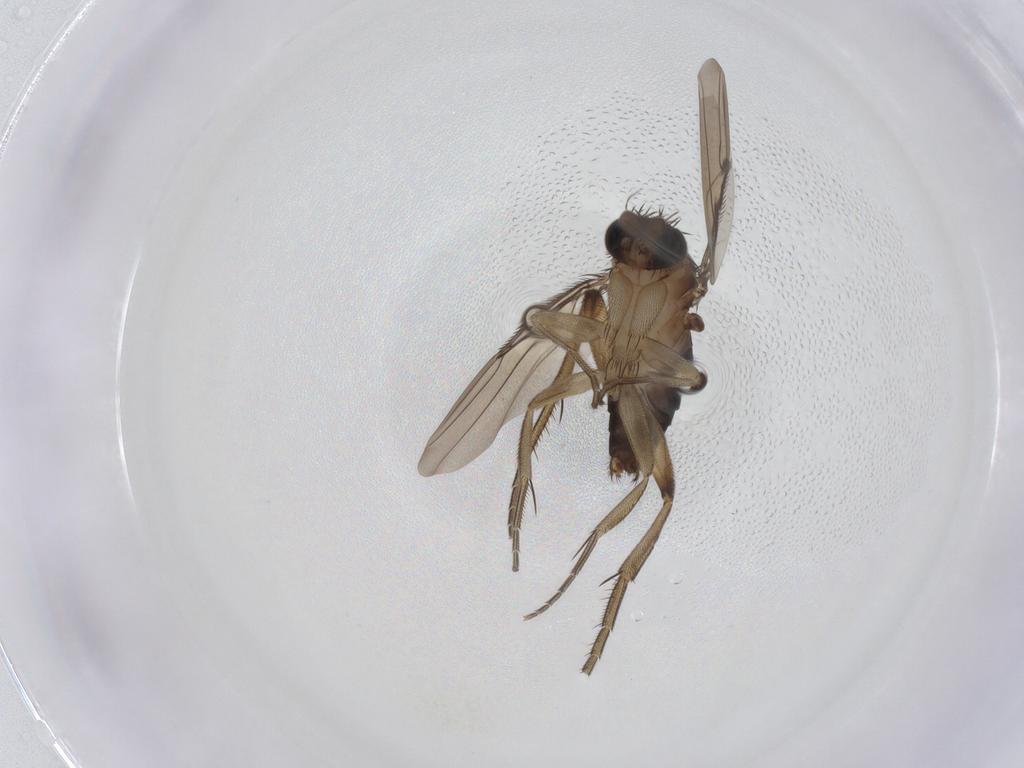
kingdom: Animalia
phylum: Arthropoda
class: Insecta
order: Diptera
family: Phoridae
